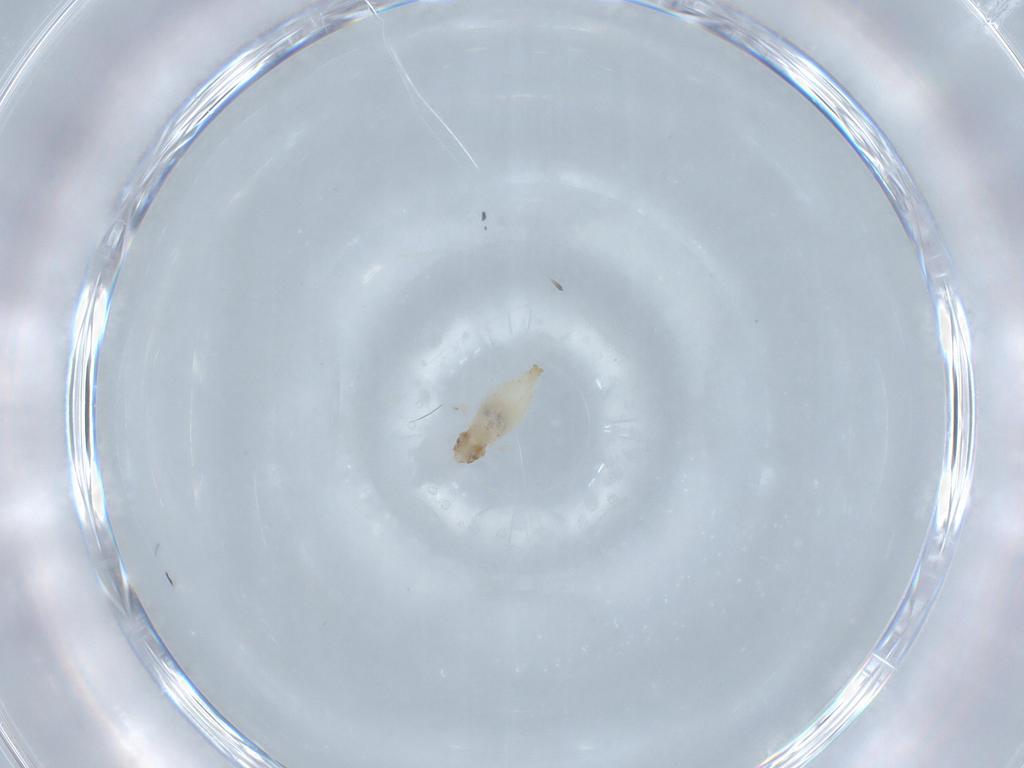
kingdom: Animalia
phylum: Arthropoda
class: Insecta
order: Diptera
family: Cecidomyiidae
